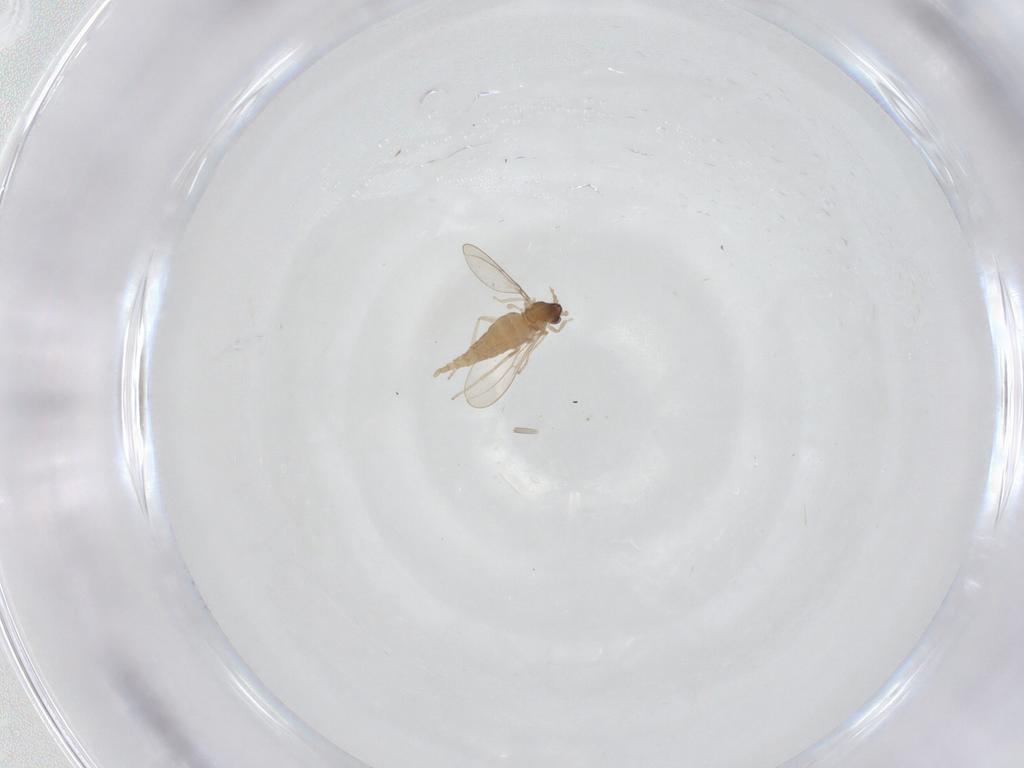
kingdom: Animalia
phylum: Arthropoda
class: Insecta
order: Diptera
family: Cecidomyiidae
